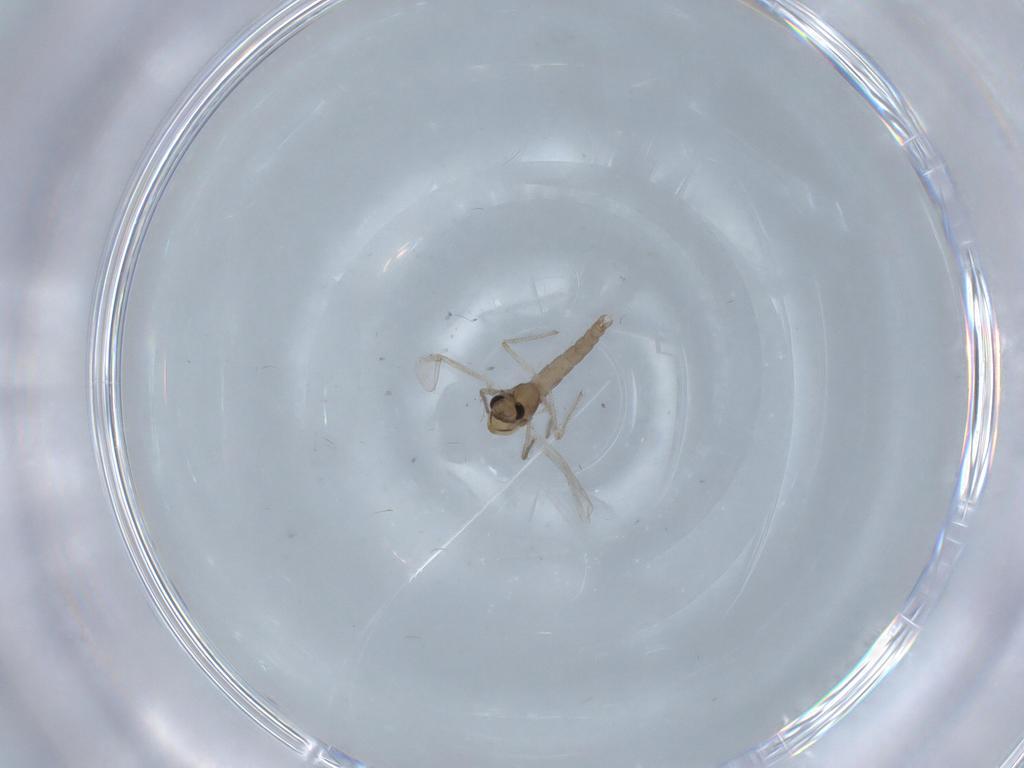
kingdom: Animalia
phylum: Arthropoda
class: Insecta
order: Diptera
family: Chironomidae
